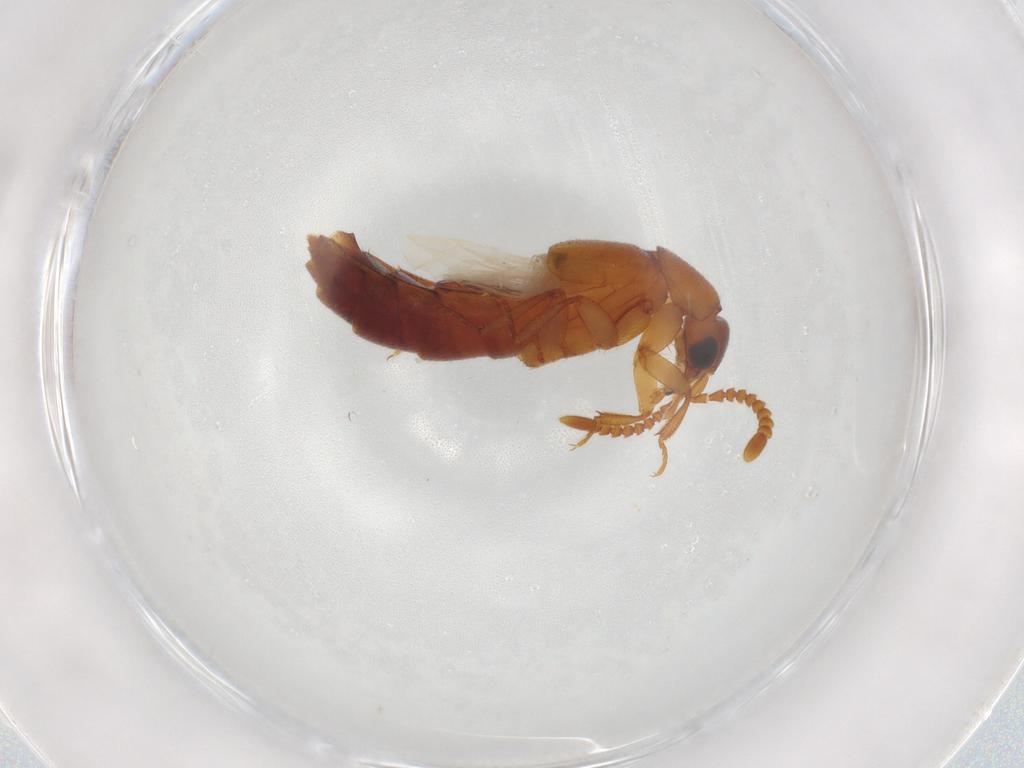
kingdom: Animalia
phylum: Arthropoda
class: Insecta
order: Coleoptera
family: Staphylinidae
